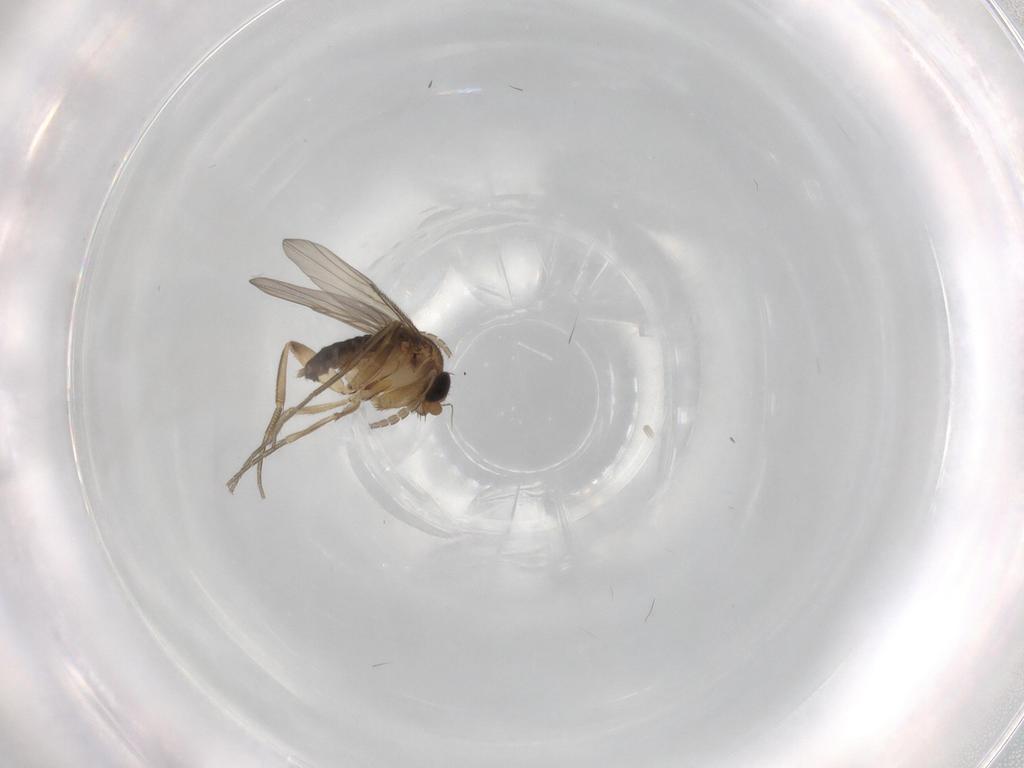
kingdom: Animalia
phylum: Arthropoda
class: Insecta
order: Diptera
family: Phoridae
